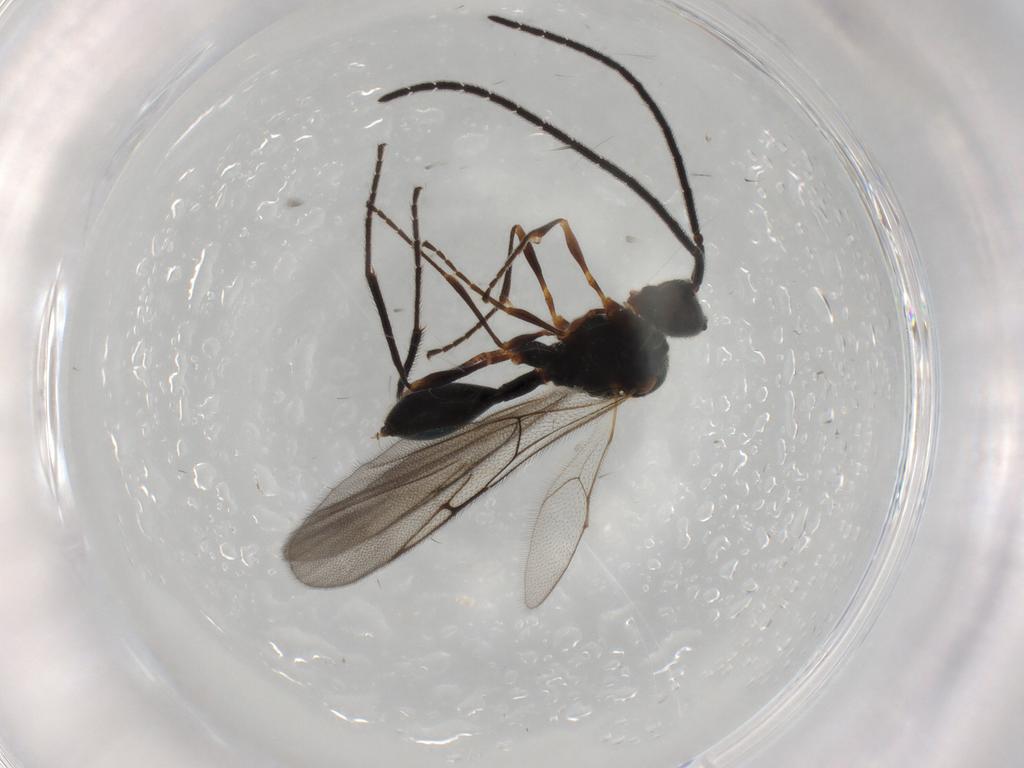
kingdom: Animalia
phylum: Arthropoda
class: Insecta
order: Hymenoptera
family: Diapriidae
